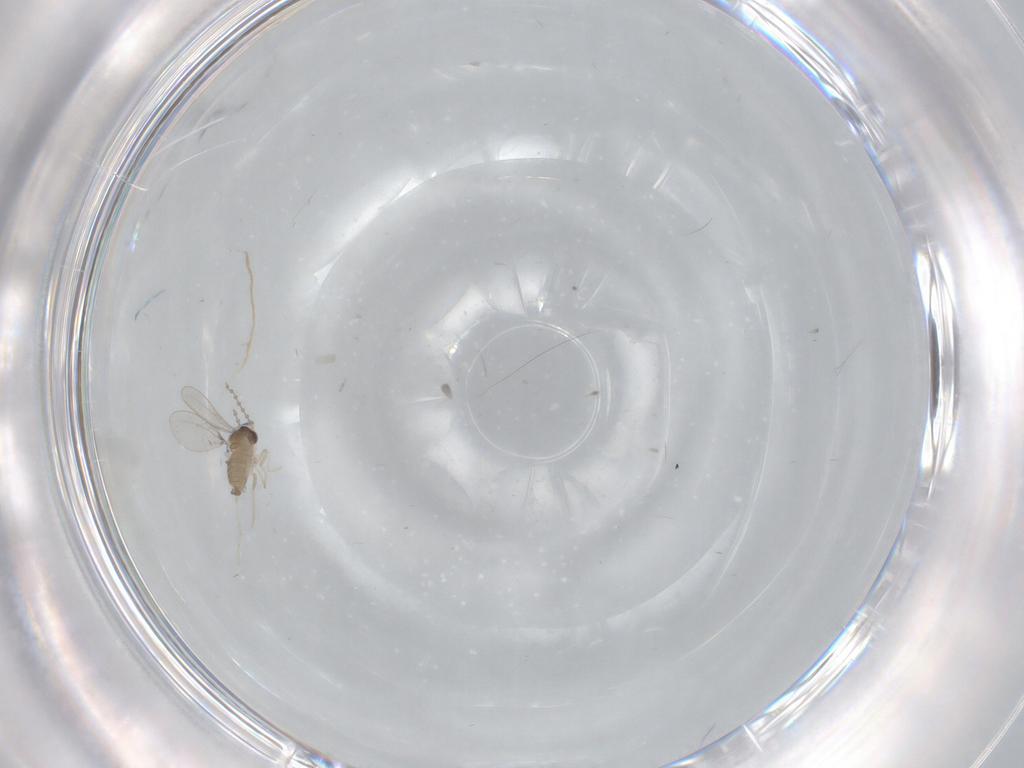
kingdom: Animalia
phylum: Arthropoda
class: Insecta
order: Diptera
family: Cecidomyiidae
